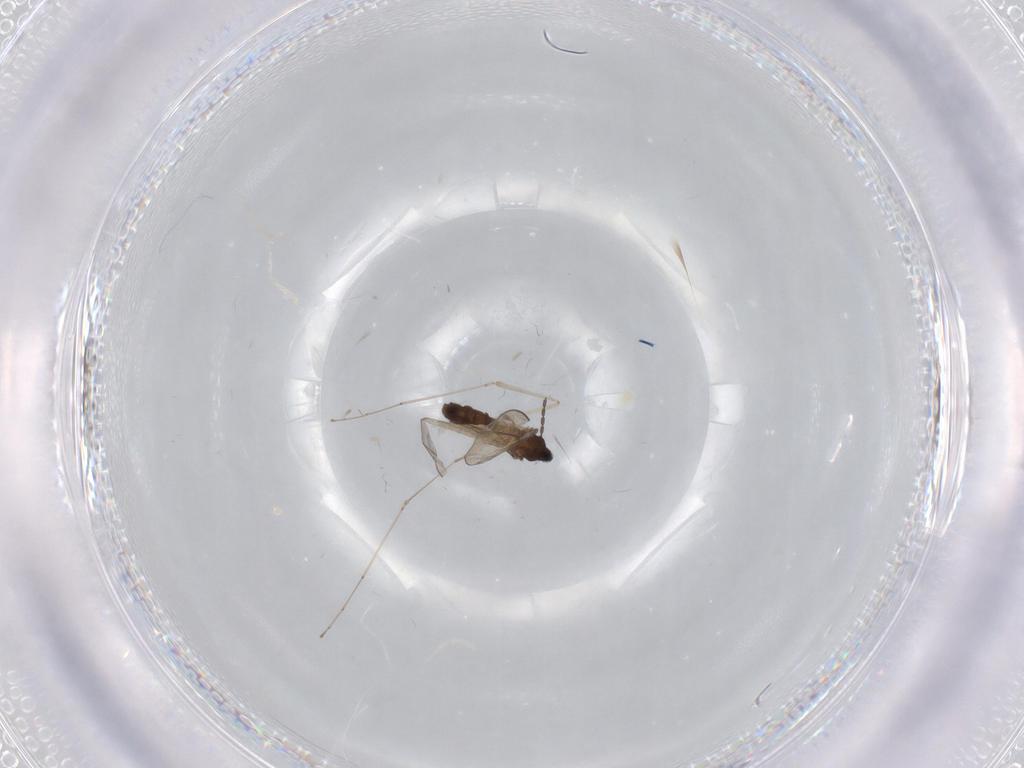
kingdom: Animalia
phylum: Arthropoda
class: Insecta
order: Diptera
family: Psychodidae
